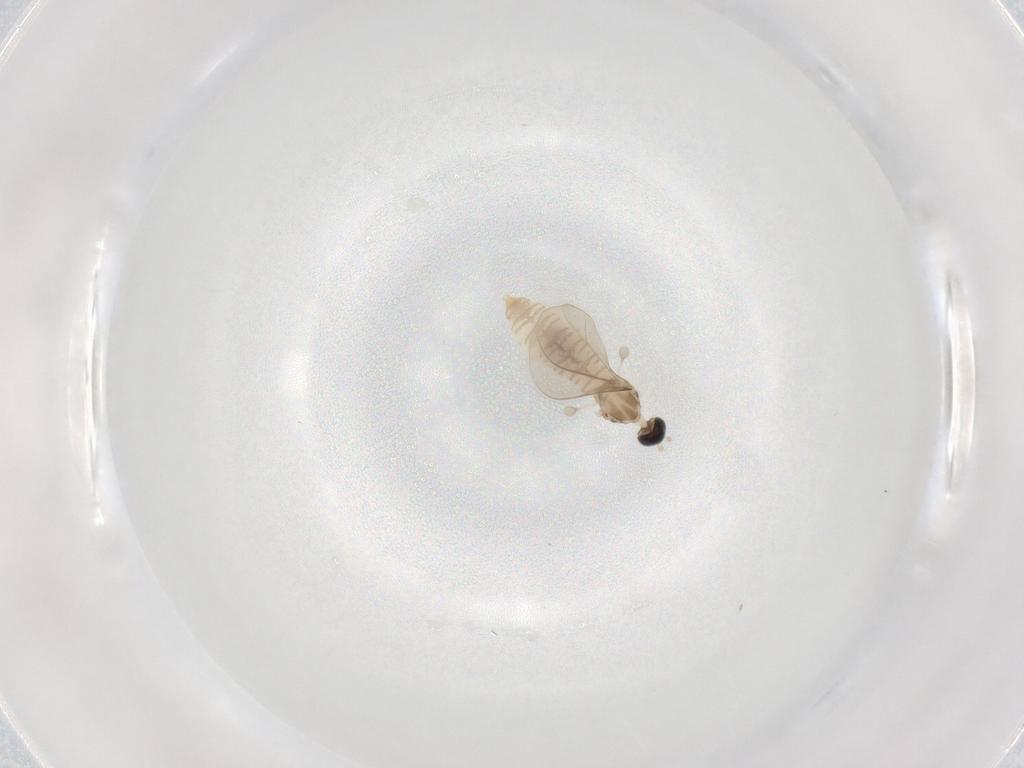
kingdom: Animalia
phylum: Arthropoda
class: Insecta
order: Diptera
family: Cecidomyiidae
